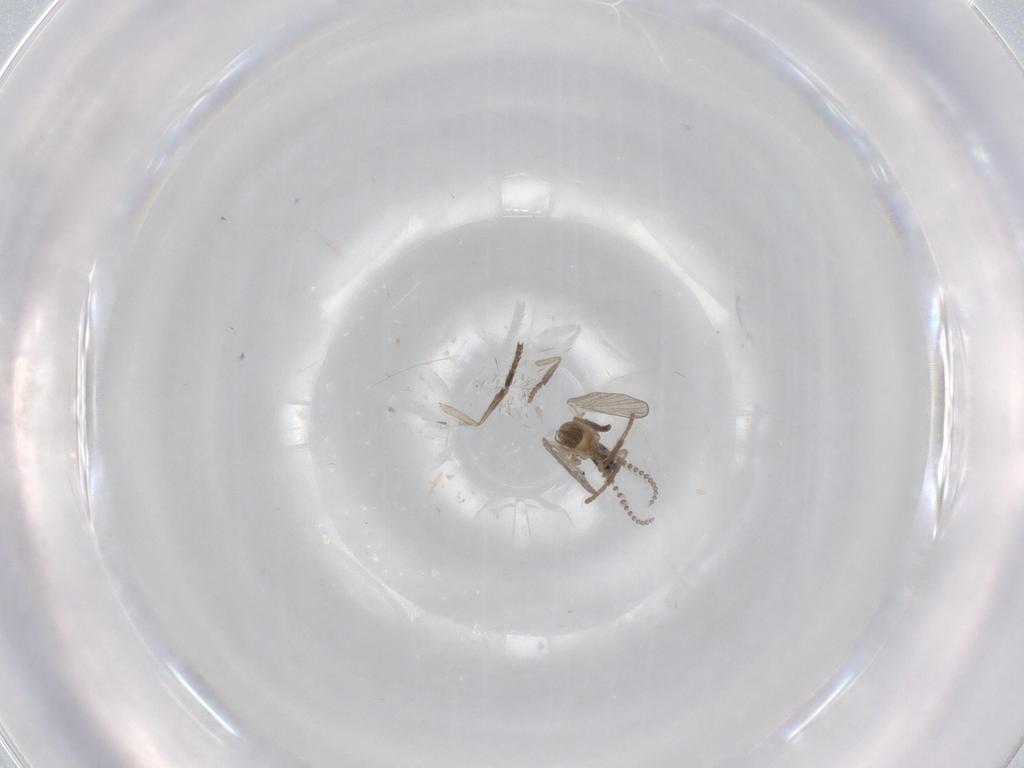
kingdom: Animalia
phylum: Arthropoda
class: Insecta
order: Diptera
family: Psychodidae
